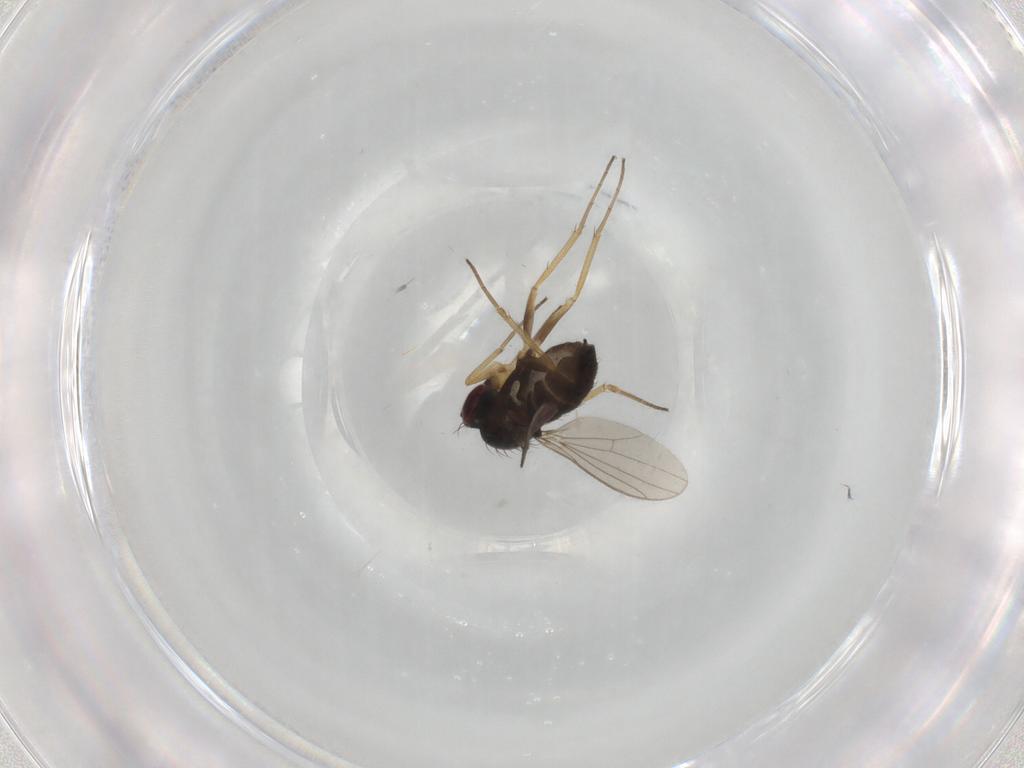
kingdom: Animalia
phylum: Arthropoda
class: Insecta
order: Diptera
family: Dolichopodidae
